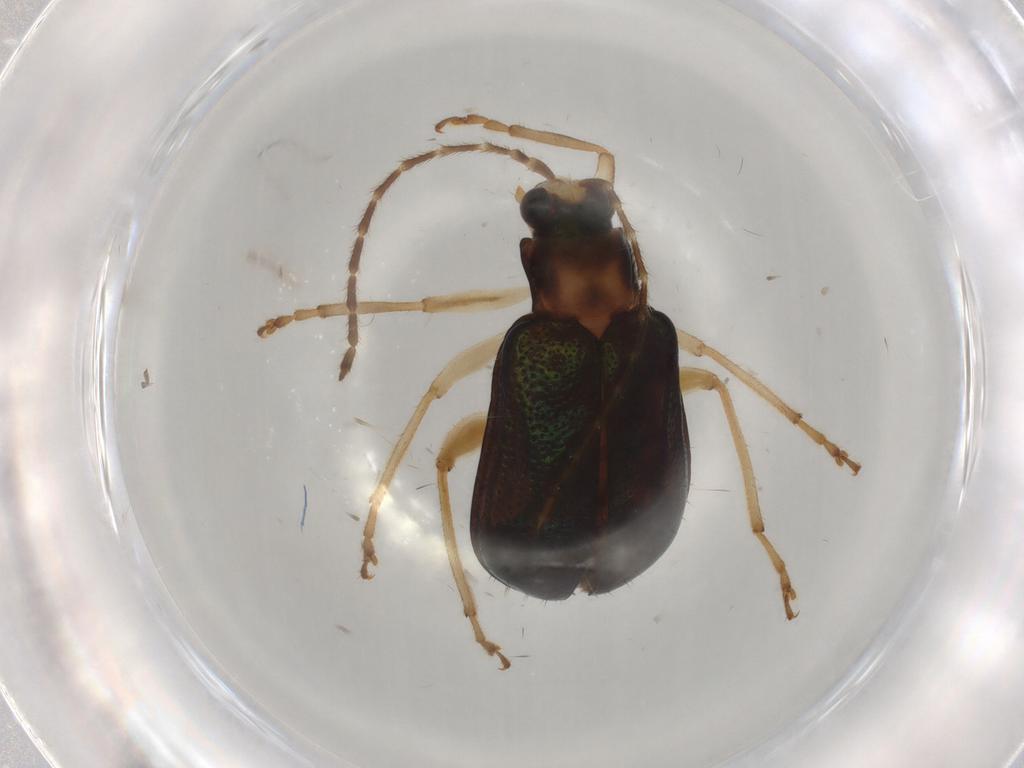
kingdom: Animalia
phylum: Arthropoda
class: Insecta
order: Coleoptera
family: Chrysomelidae
